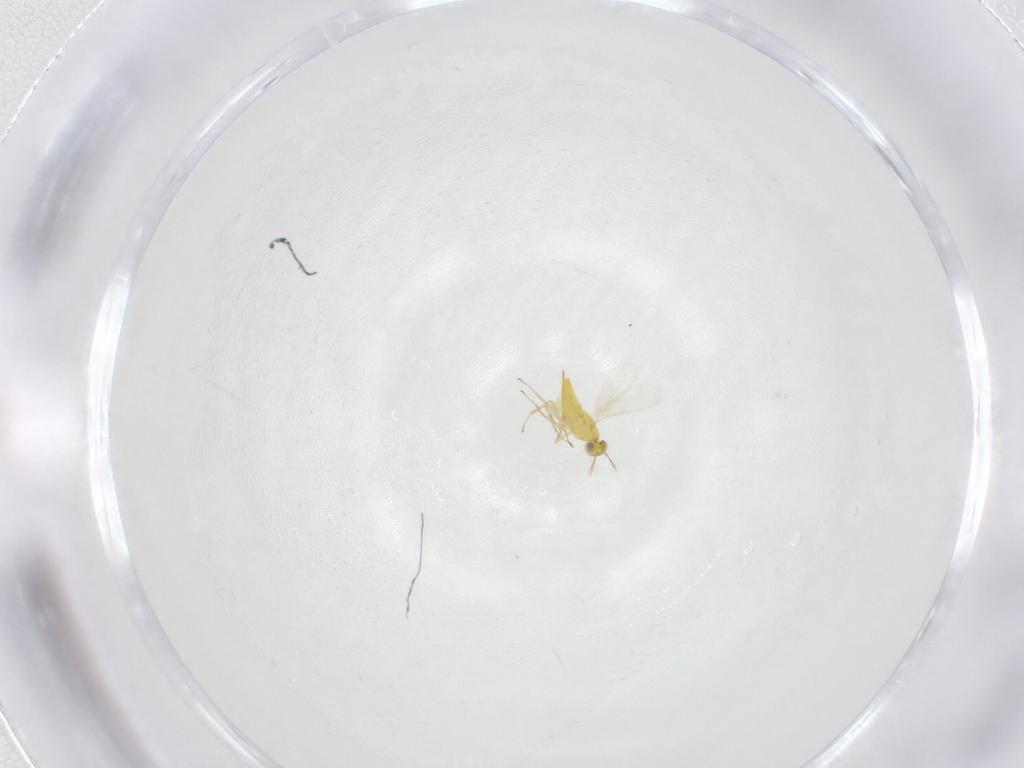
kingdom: Animalia
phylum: Arthropoda
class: Insecta
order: Hymenoptera
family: Aphelinidae
